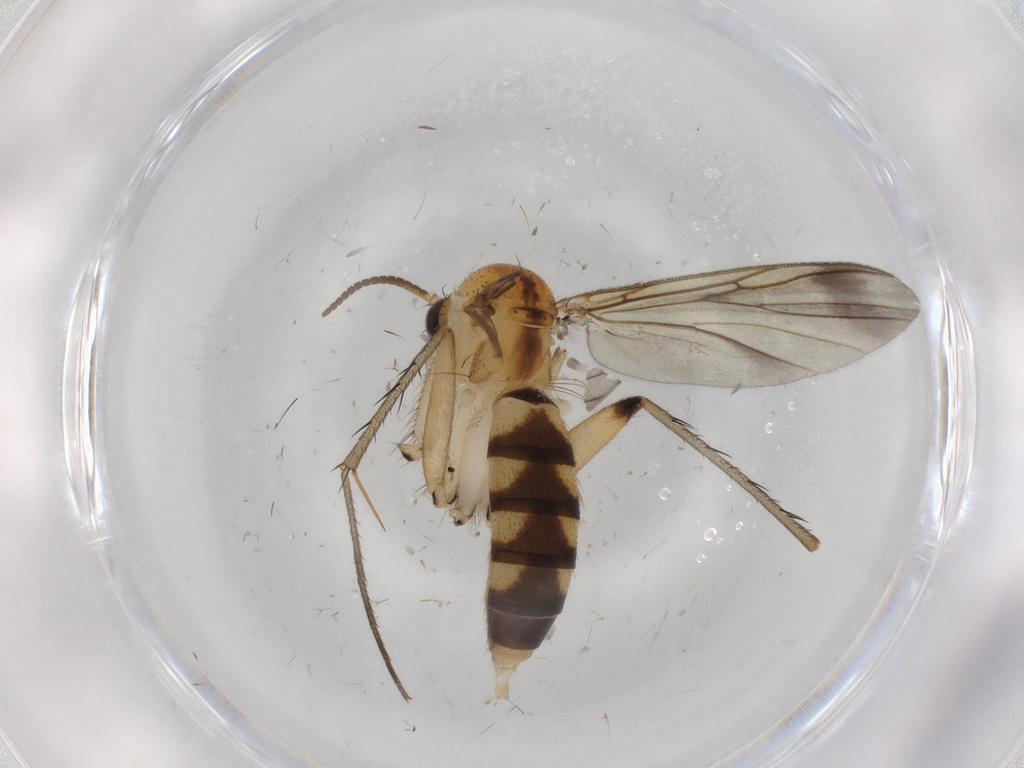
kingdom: Animalia
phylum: Arthropoda
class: Insecta
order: Diptera
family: Mycetophilidae
